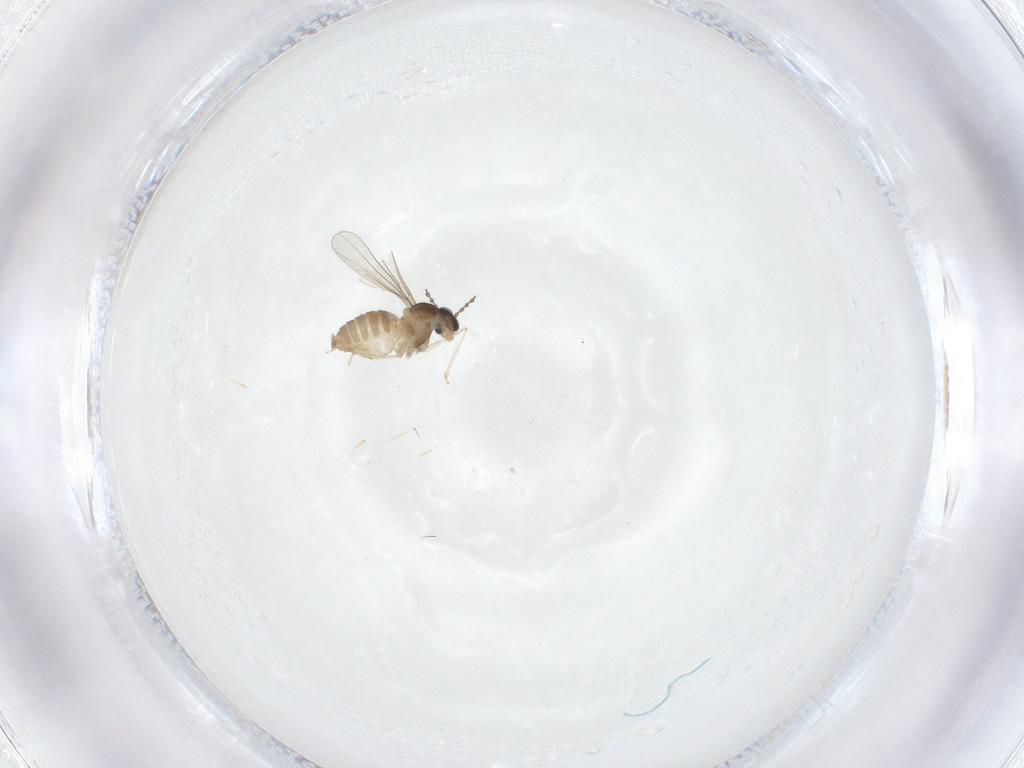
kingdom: Animalia
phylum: Arthropoda
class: Insecta
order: Diptera
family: Cecidomyiidae
